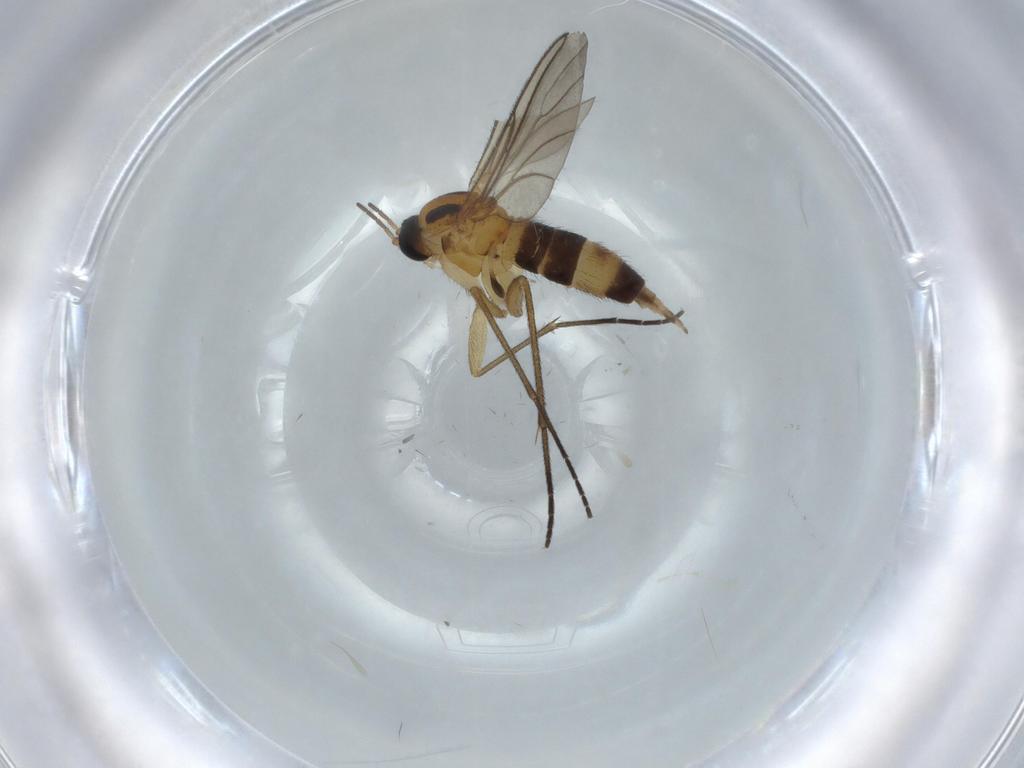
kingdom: Animalia
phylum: Arthropoda
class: Insecta
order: Diptera
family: Sciaridae
